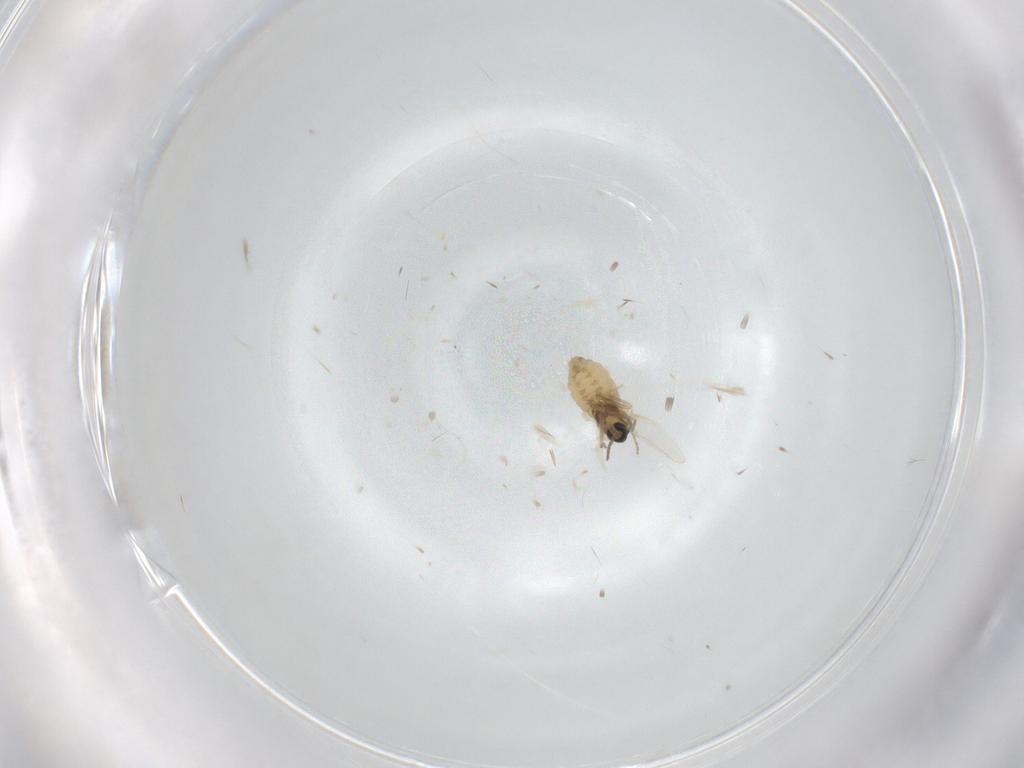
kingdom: Animalia
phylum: Arthropoda
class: Insecta
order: Diptera
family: Cecidomyiidae
